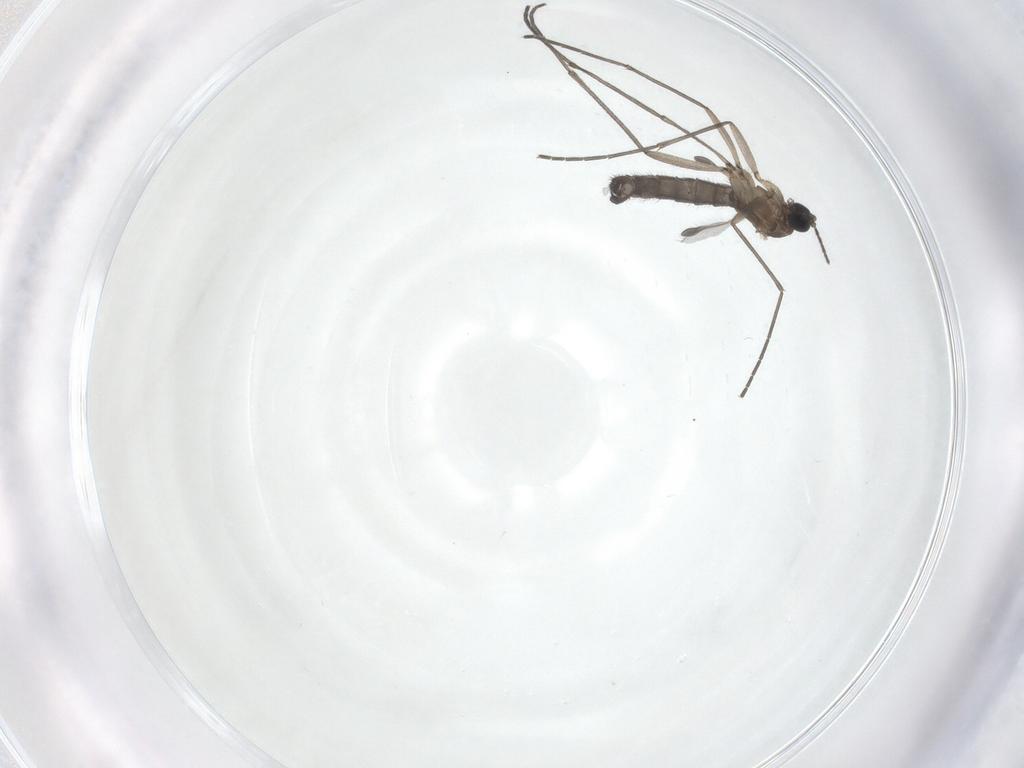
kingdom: Animalia
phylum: Arthropoda
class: Insecta
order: Diptera
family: Sciaridae
